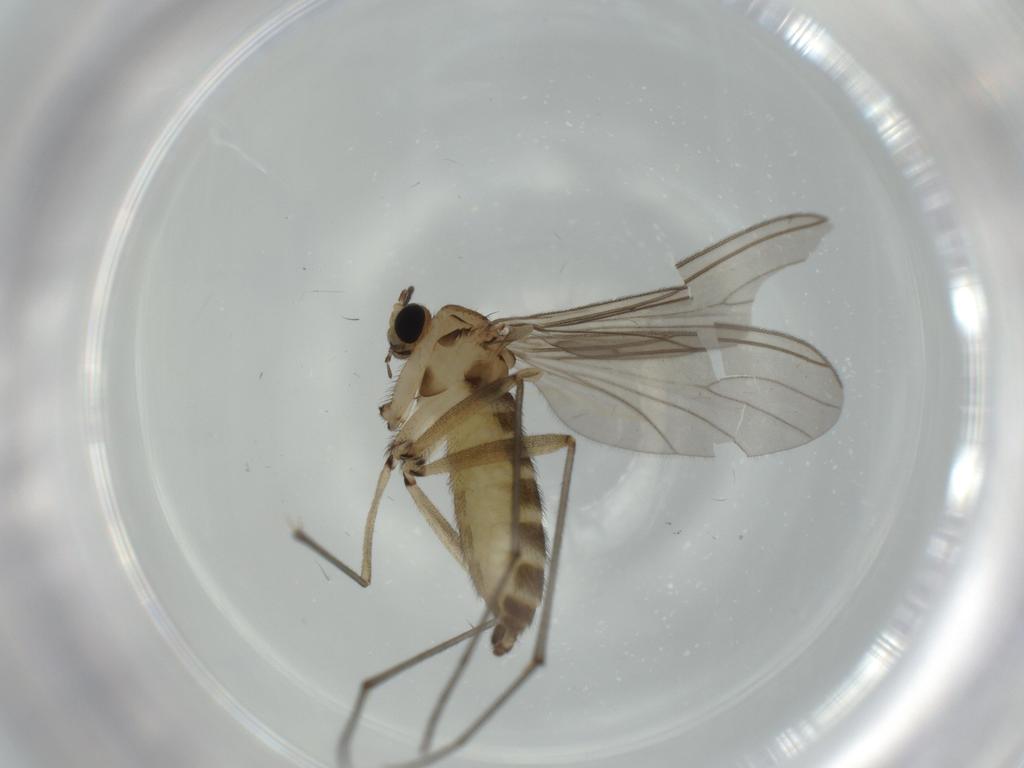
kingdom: Animalia
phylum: Arthropoda
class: Insecta
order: Diptera
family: Sciaridae
